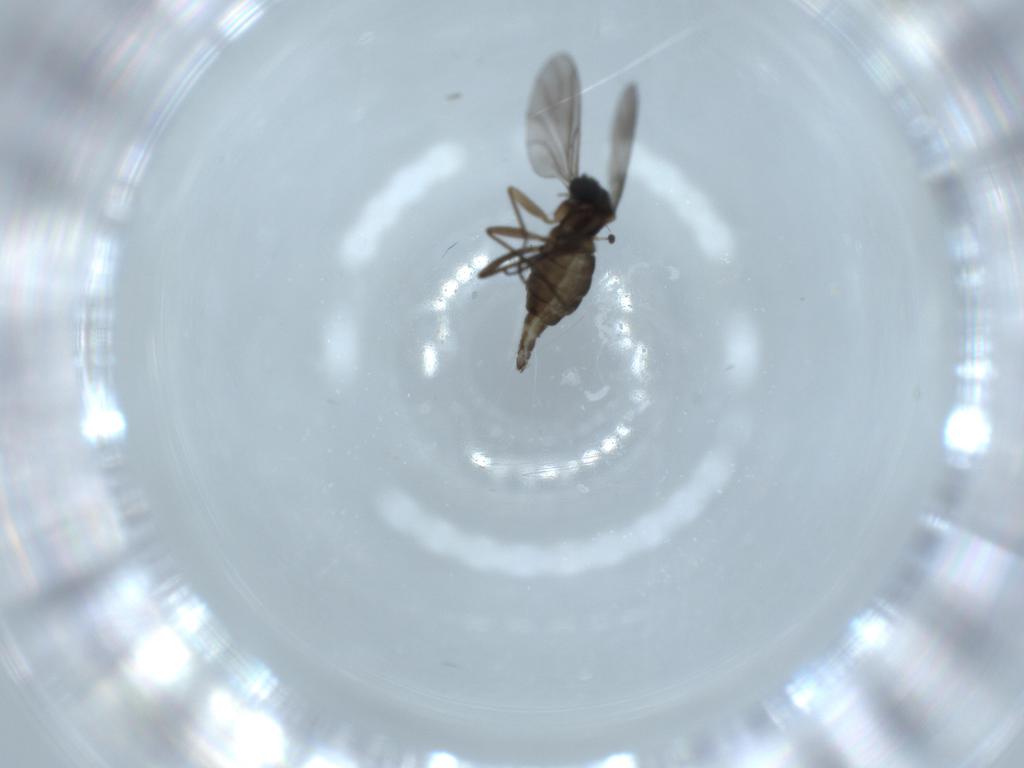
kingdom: Animalia
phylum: Arthropoda
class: Insecta
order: Diptera
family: Sciaridae
